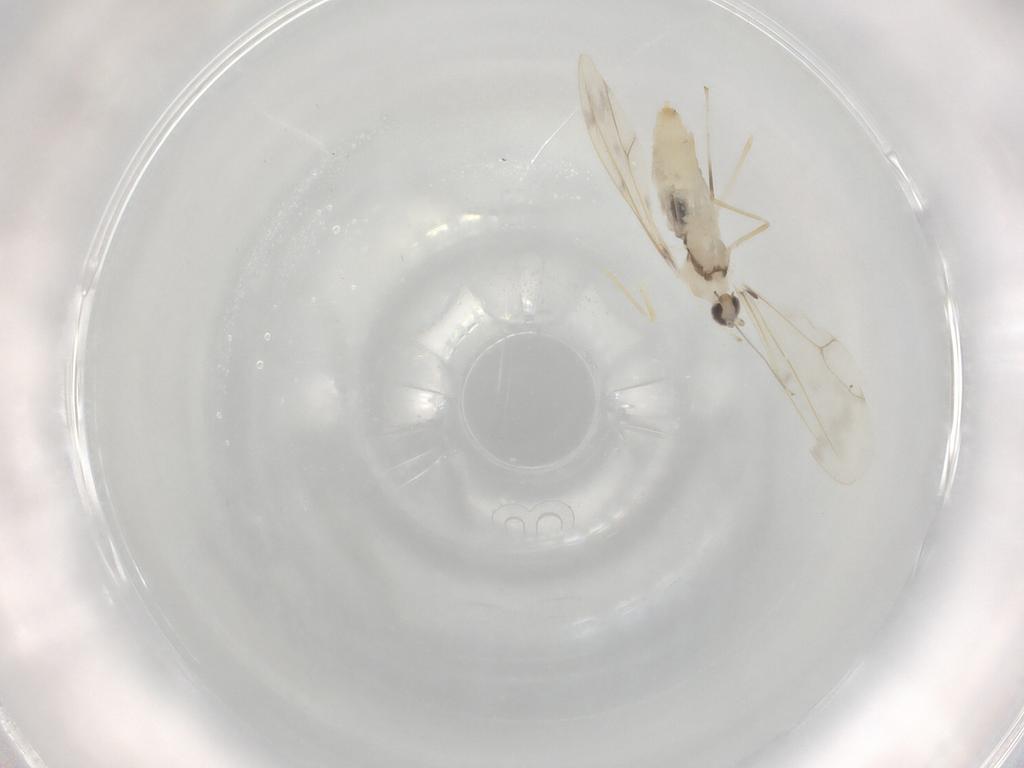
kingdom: Animalia
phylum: Arthropoda
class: Insecta
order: Diptera
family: Cecidomyiidae
